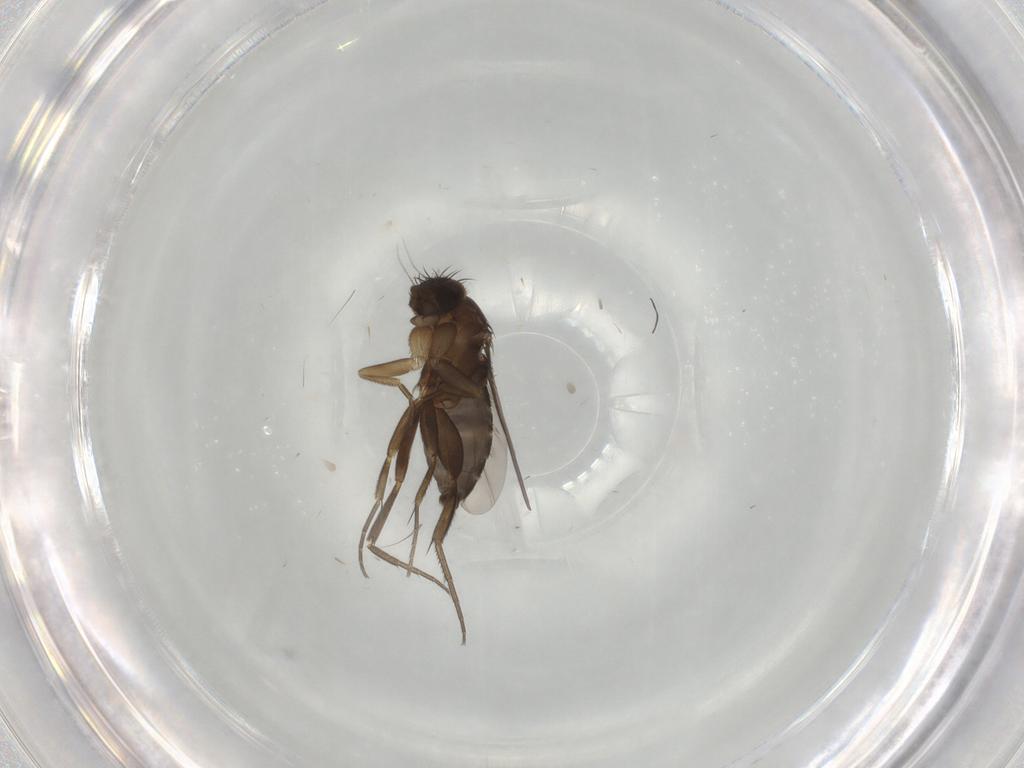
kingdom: Animalia
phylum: Arthropoda
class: Insecta
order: Diptera
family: Phoridae
